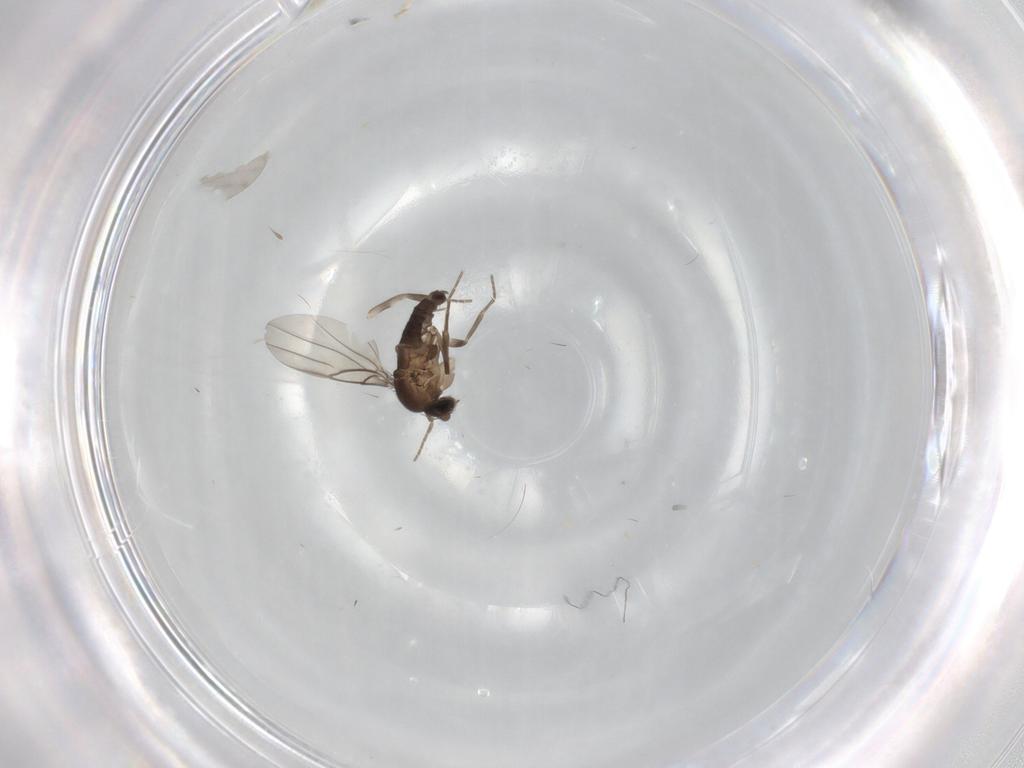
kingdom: Animalia
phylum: Arthropoda
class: Insecta
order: Diptera
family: Phoridae
